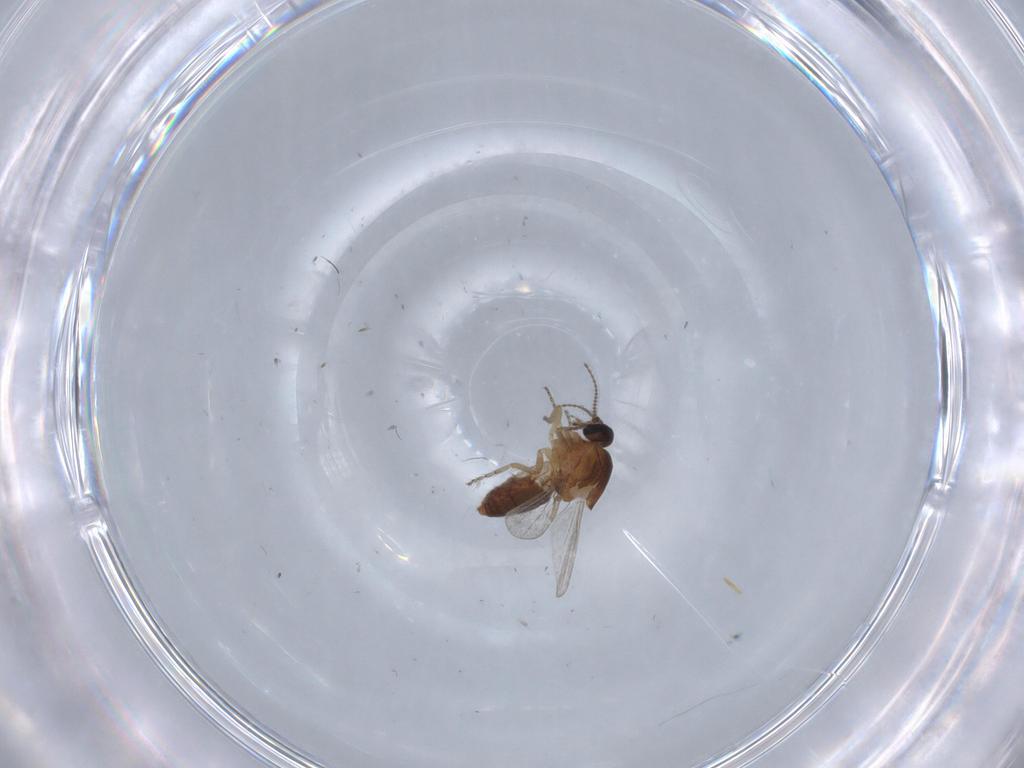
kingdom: Animalia
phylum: Arthropoda
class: Insecta
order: Diptera
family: Ceratopogonidae
